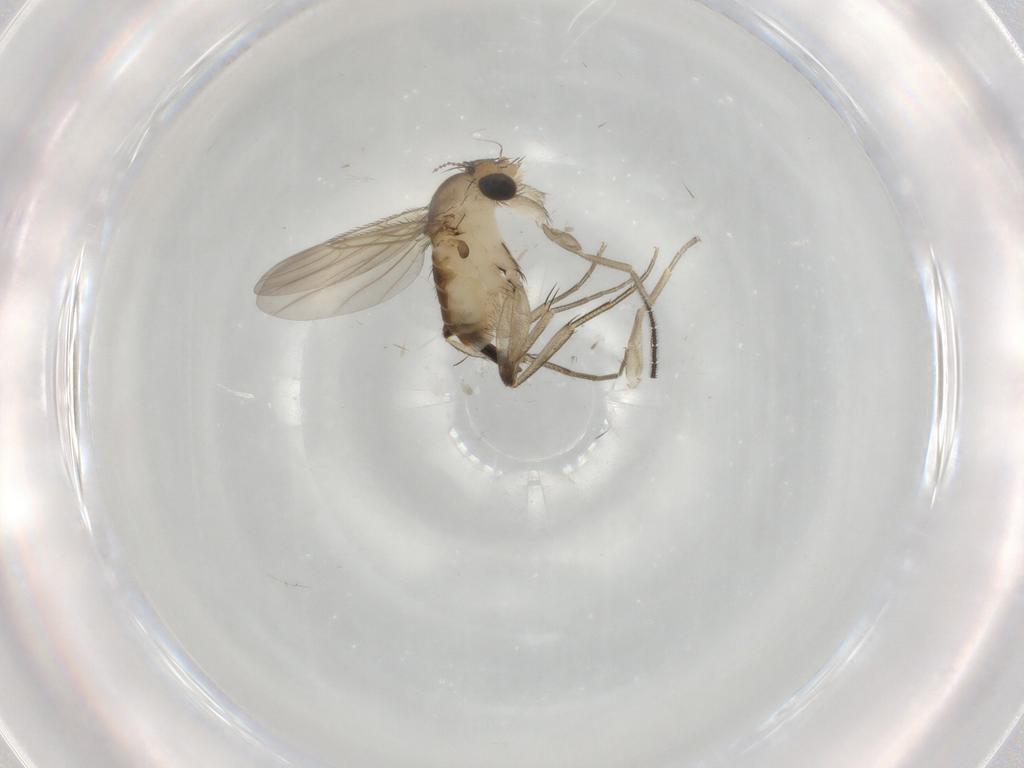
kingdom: Animalia
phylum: Arthropoda
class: Insecta
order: Diptera
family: Phoridae
